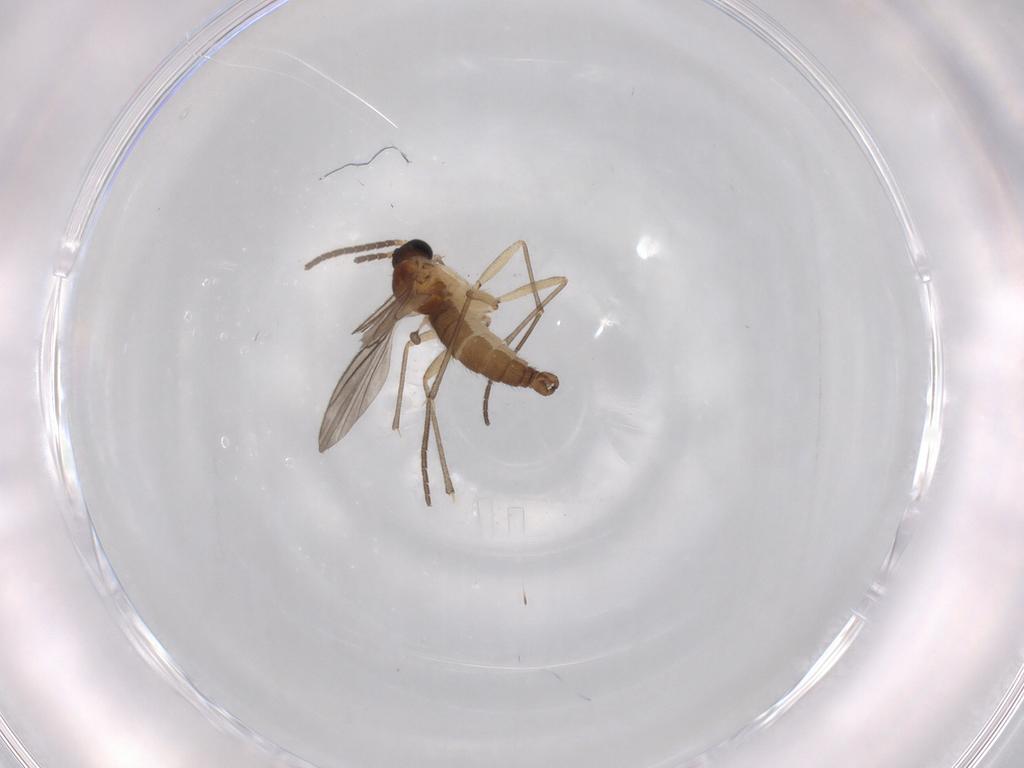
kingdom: Animalia
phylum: Arthropoda
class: Insecta
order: Diptera
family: Sciaridae
